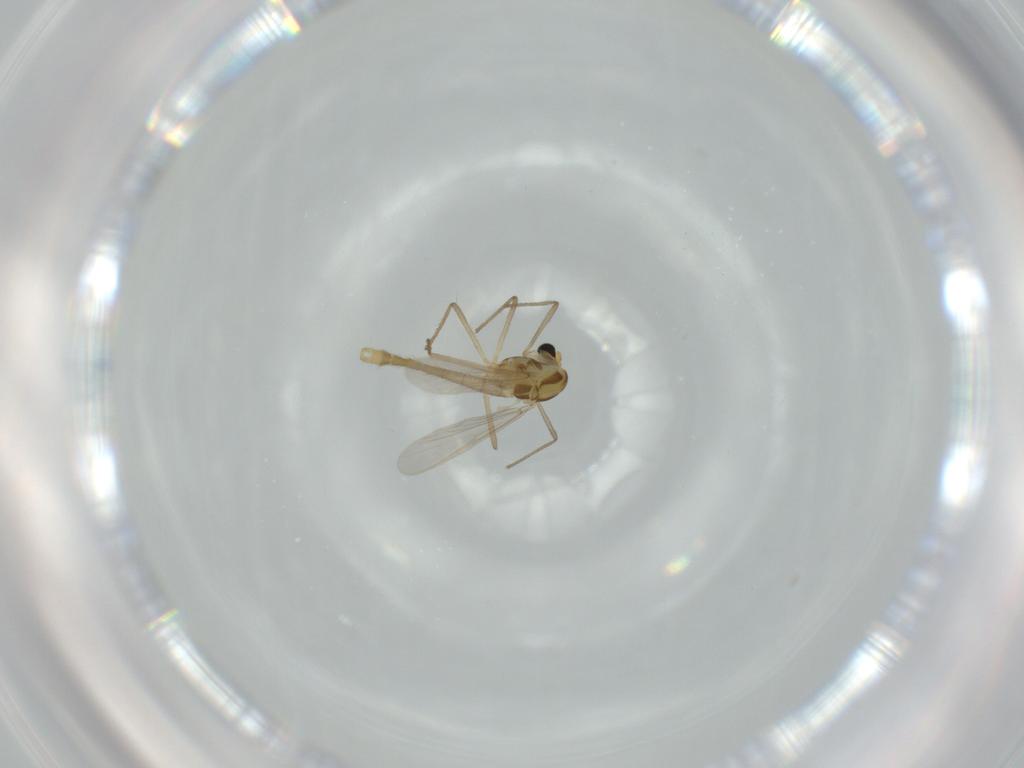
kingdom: Animalia
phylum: Arthropoda
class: Insecta
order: Diptera
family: Chironomidae
